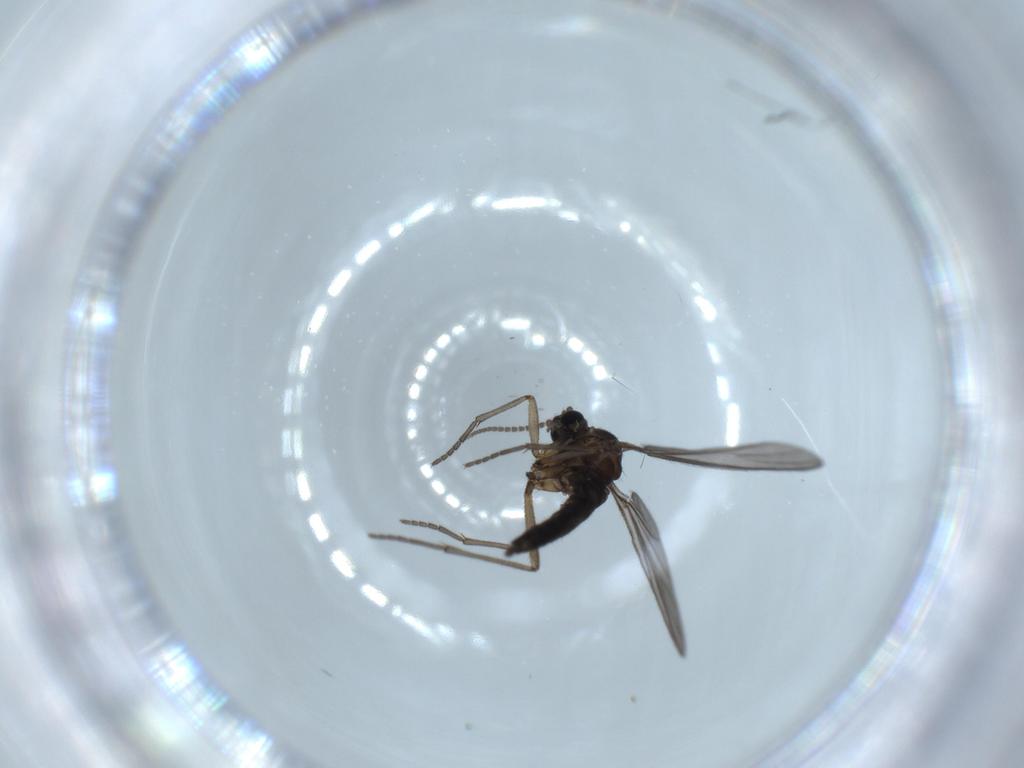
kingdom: Animalia
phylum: Arthropoda
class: Insecta
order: Diptera
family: Sciaridae
